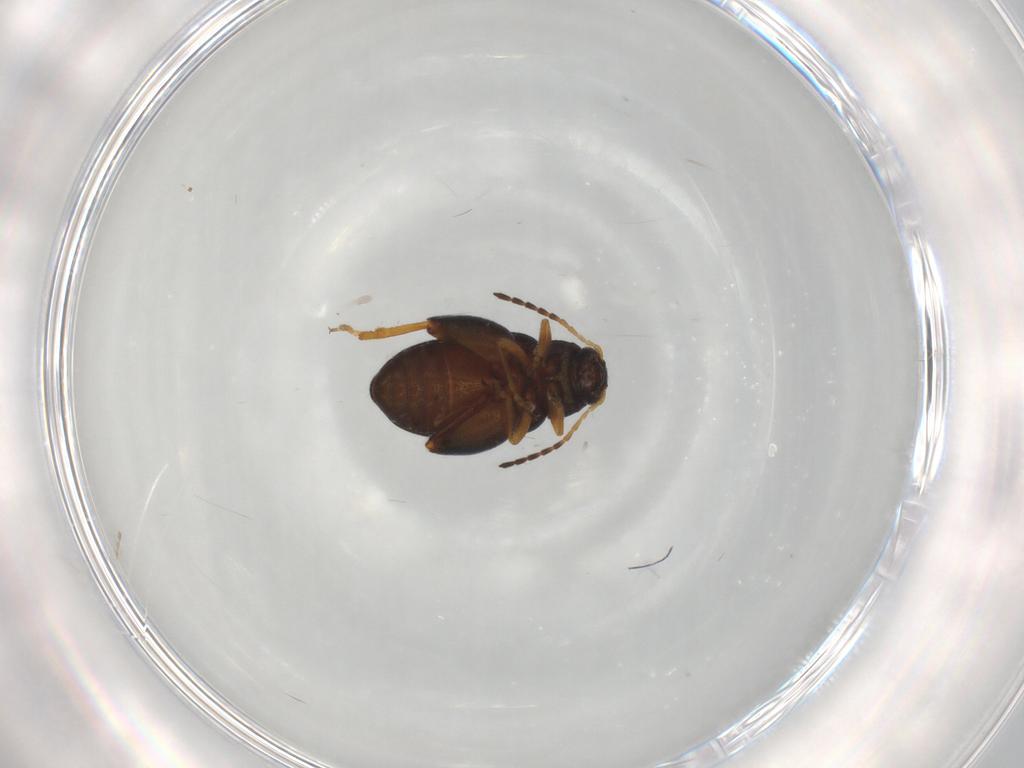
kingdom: Animalia
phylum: Arthropoda
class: Insecta
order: Coleoptera
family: Chrysomelidae
